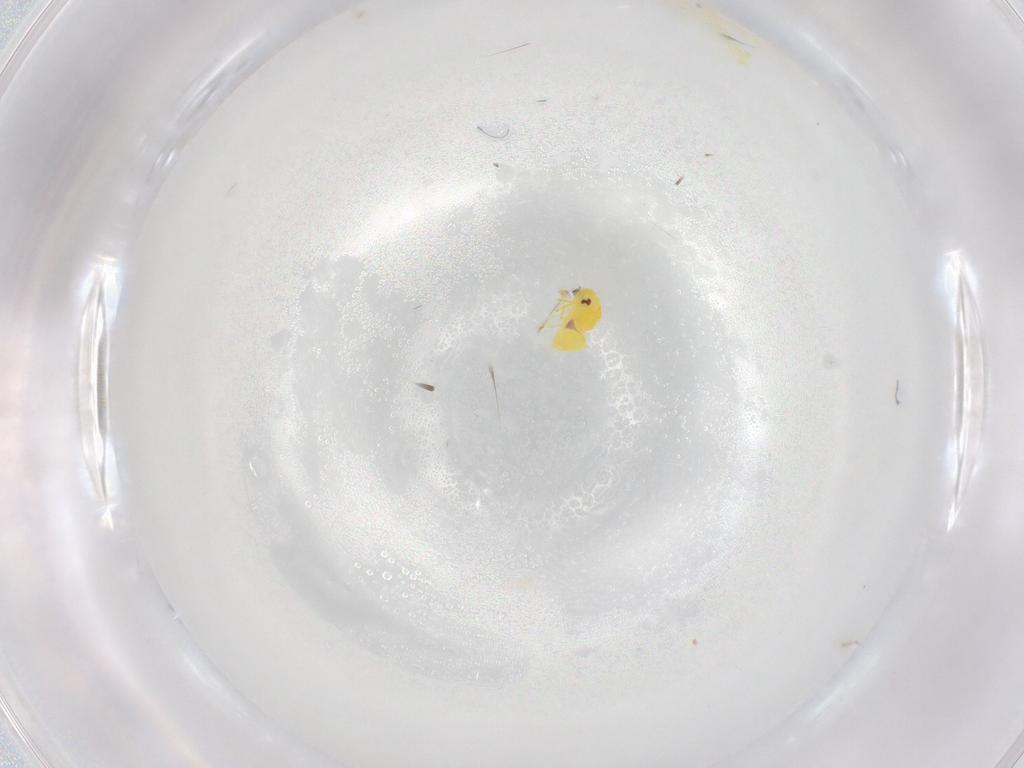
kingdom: Animalia
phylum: Arthropoda
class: Insecta
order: Hemiptera
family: Aleyrodidae
